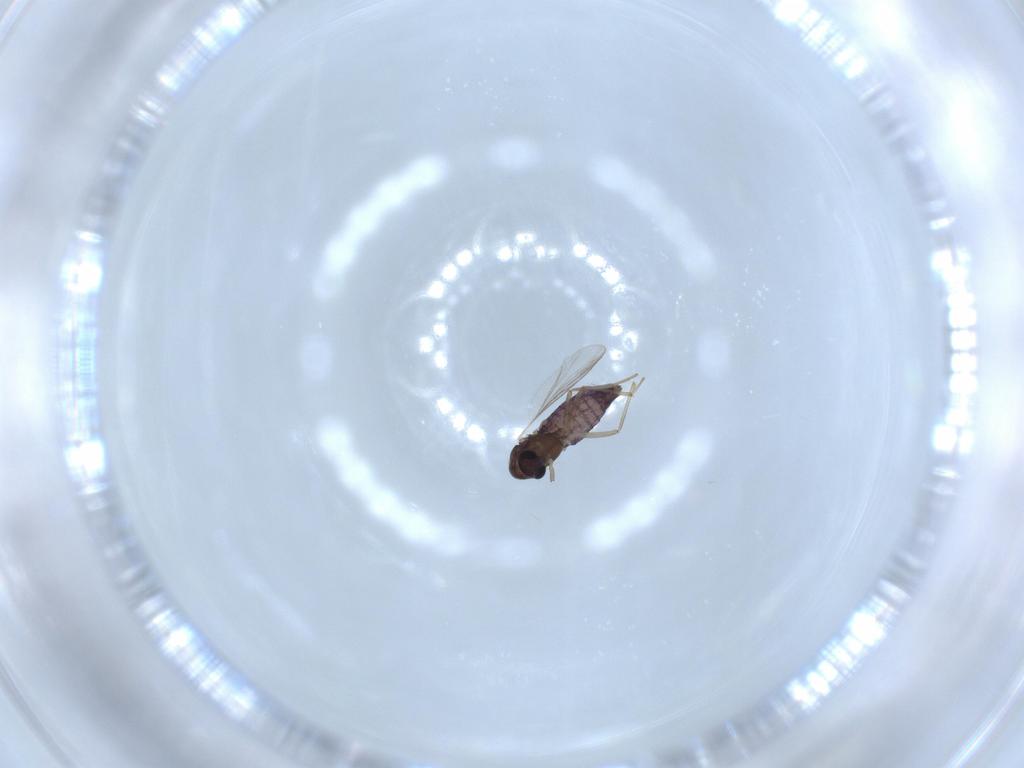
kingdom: Animalia
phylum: Arthropoda
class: Insecta
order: Diptera
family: Chironomidae
